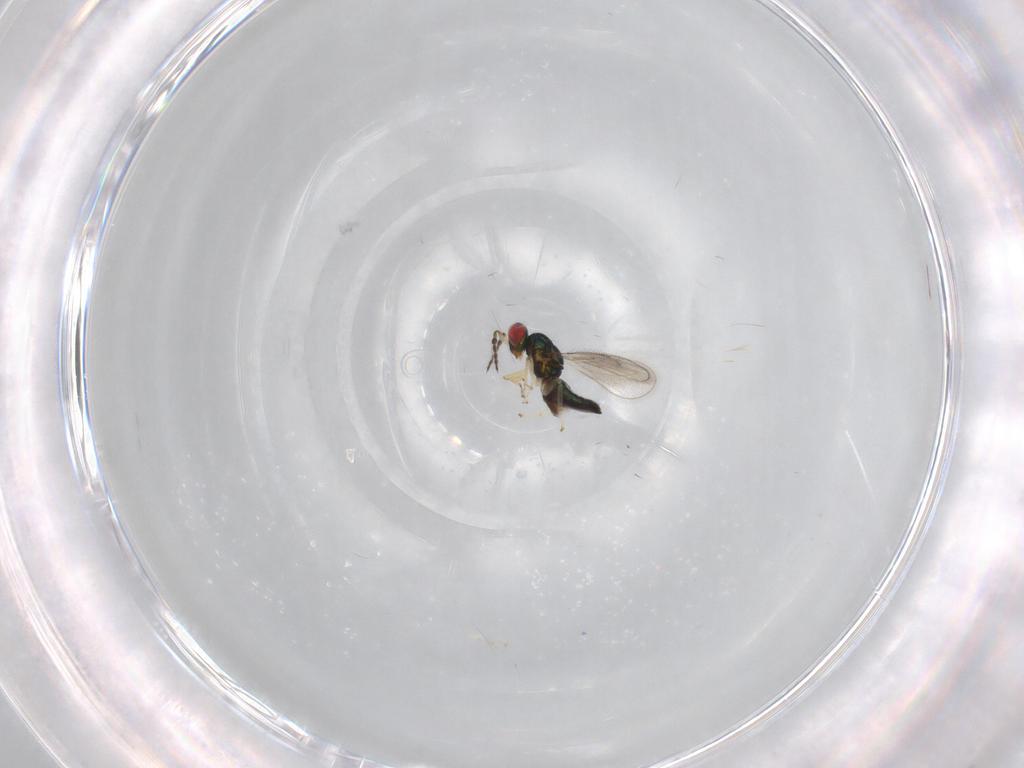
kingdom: Animalia
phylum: Arthropoda
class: Insecta
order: Hymenoptera
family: Eulophidae
